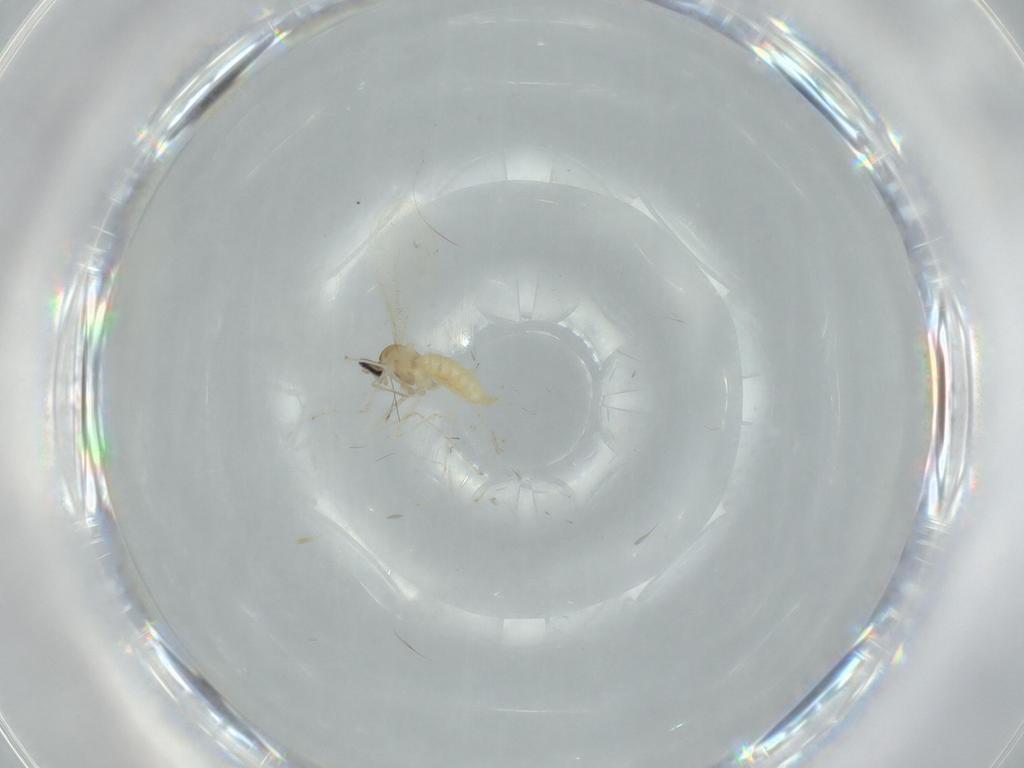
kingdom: Animalia
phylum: Arthropoda
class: Insecta
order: Diptera
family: Cecidomyiidae
